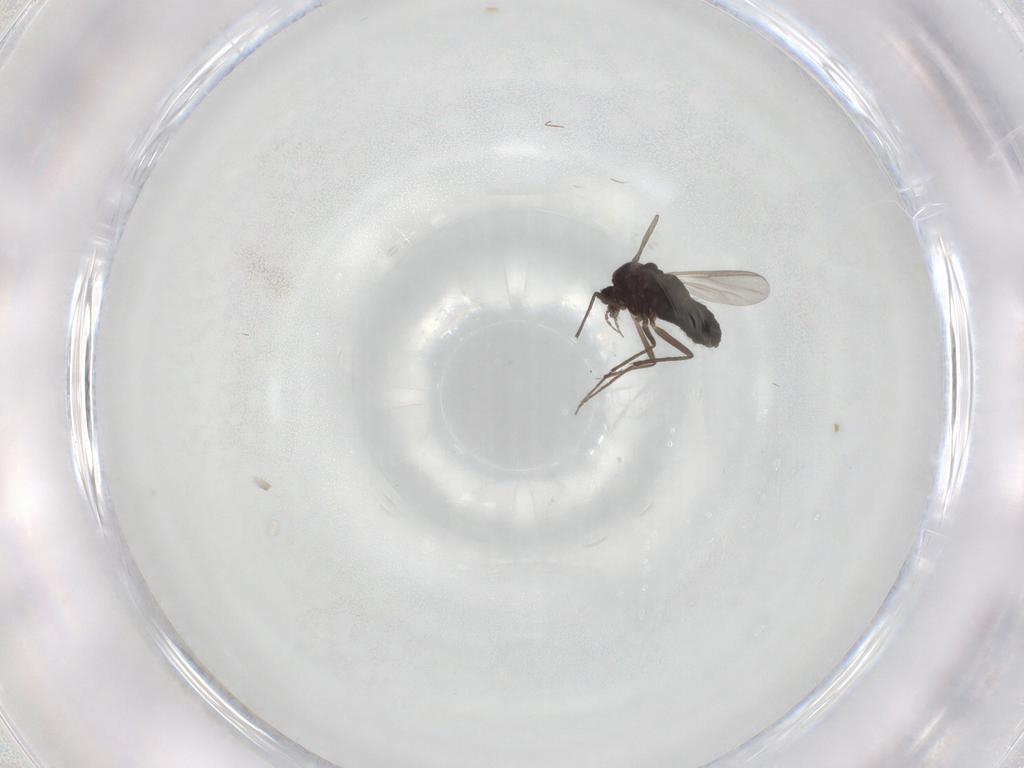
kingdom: Animalia
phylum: Arthropoda
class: Insecta
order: Diptera
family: Chironomidae
